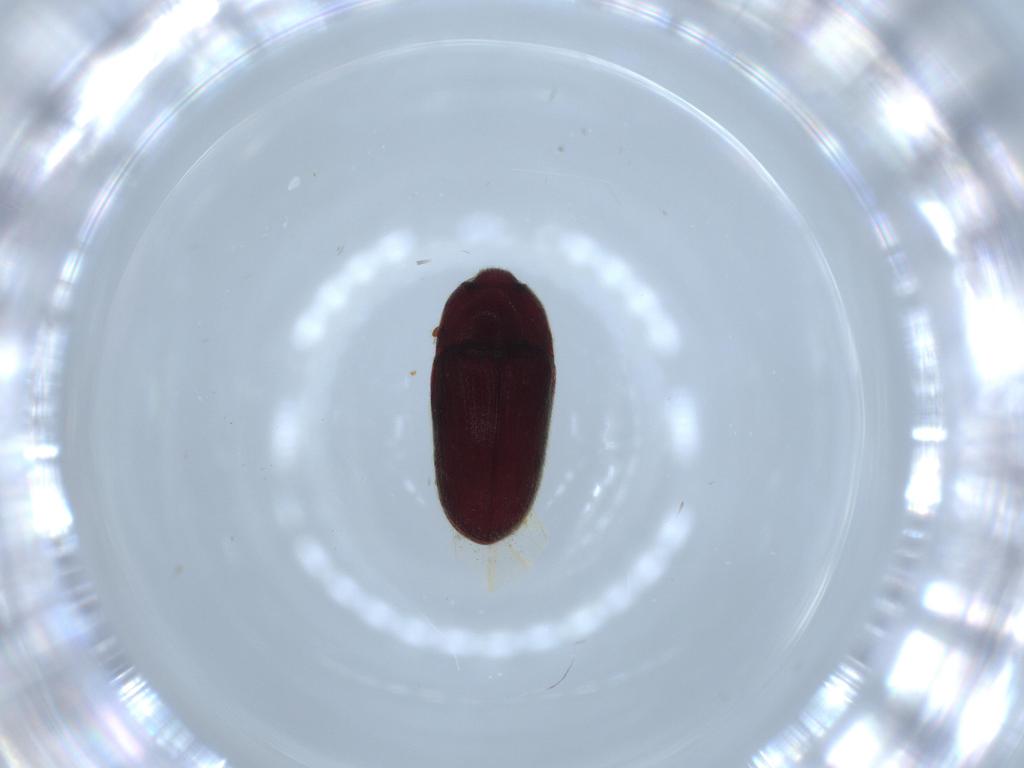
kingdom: Animalia
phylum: Arthropoda
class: Insecta
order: Coleoptera
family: Throscidae
